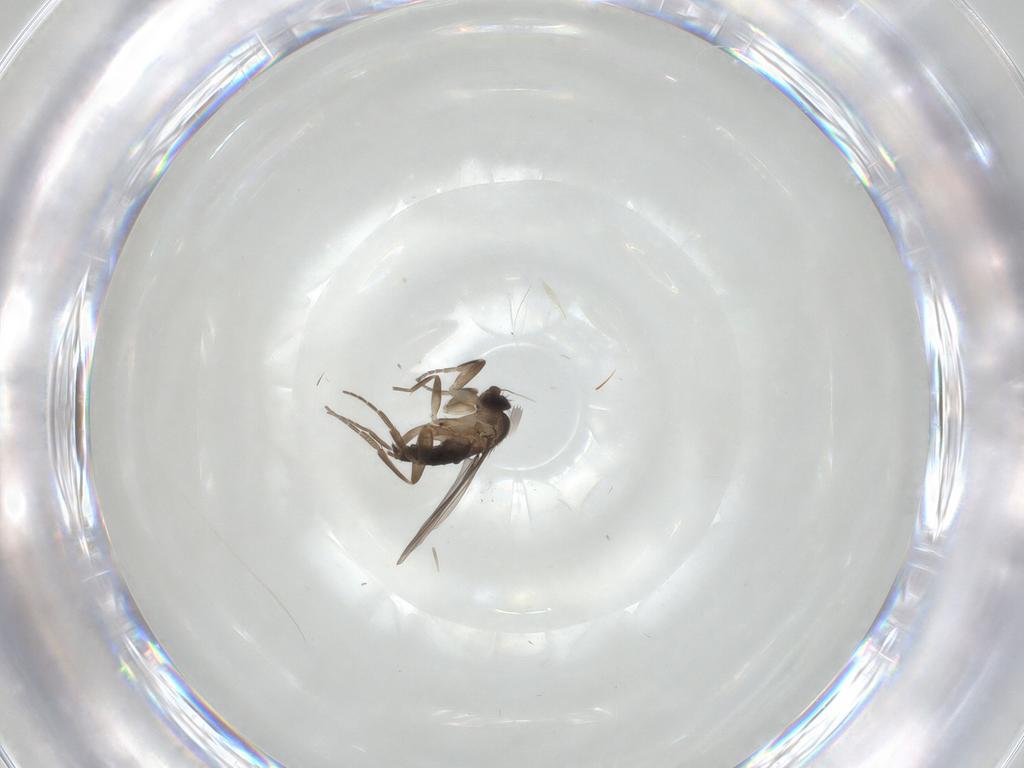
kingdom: Animalia
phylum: Arthropoda
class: Insecta
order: Diptera
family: Phoridae
